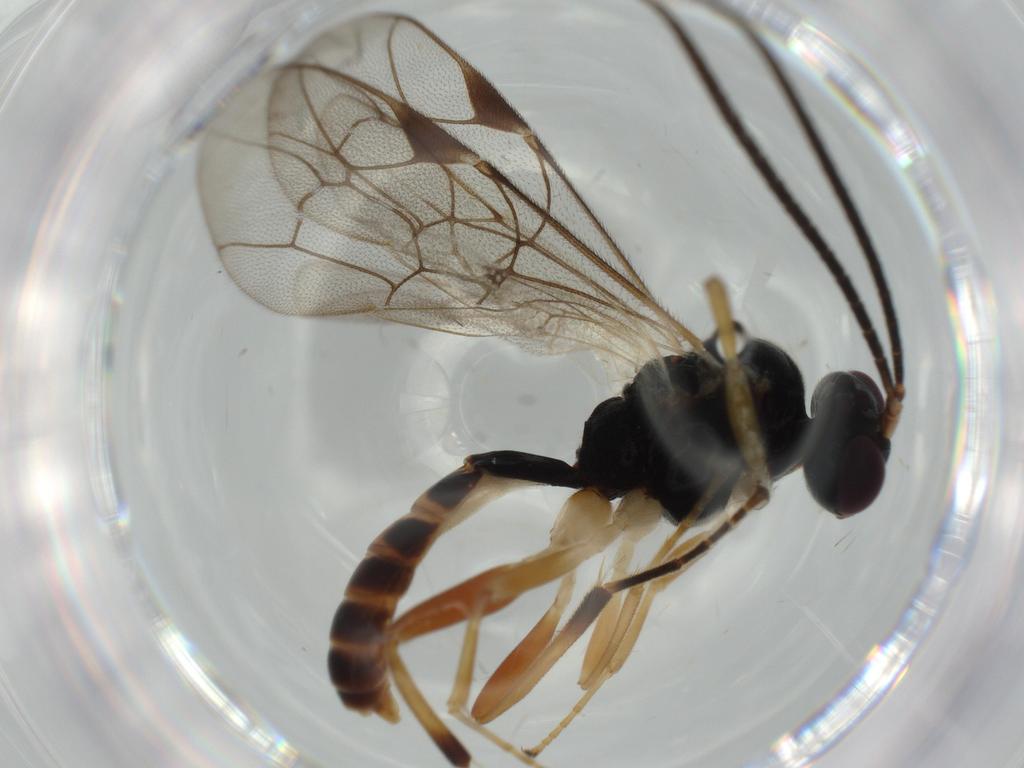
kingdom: Animalia
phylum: Arthropoda
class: Insecta
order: Hymenoptera
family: Ichneumonidae
